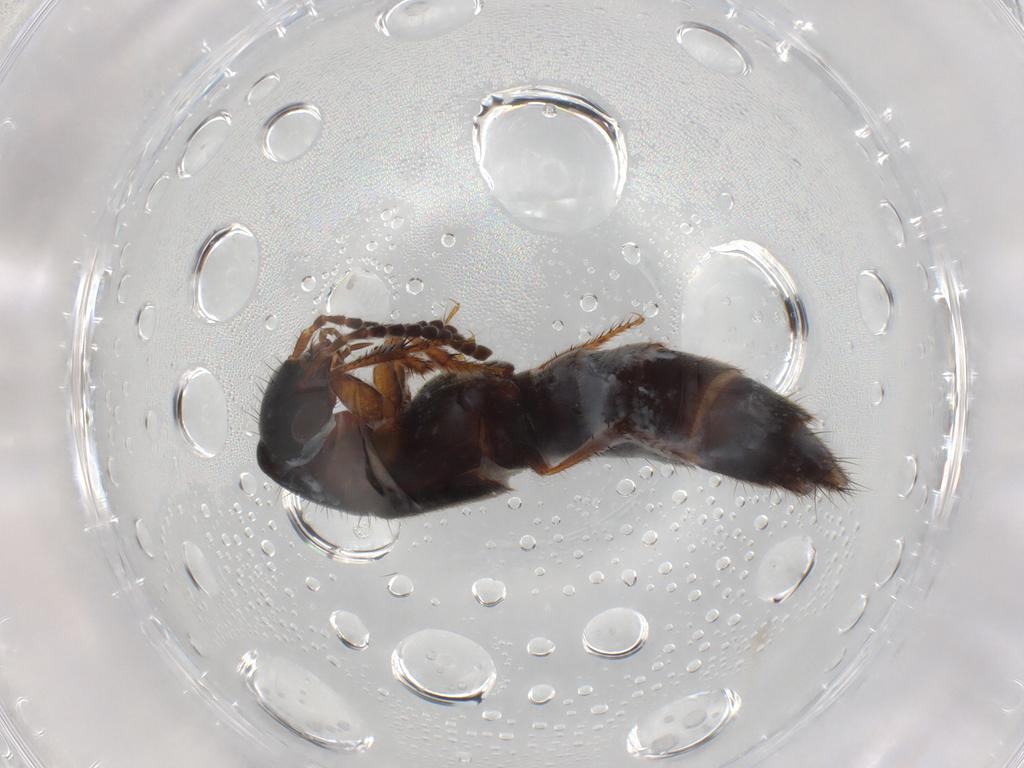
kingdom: Animalia
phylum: Arthropoda
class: Insecta
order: Coleoptera
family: Staphylinidae
